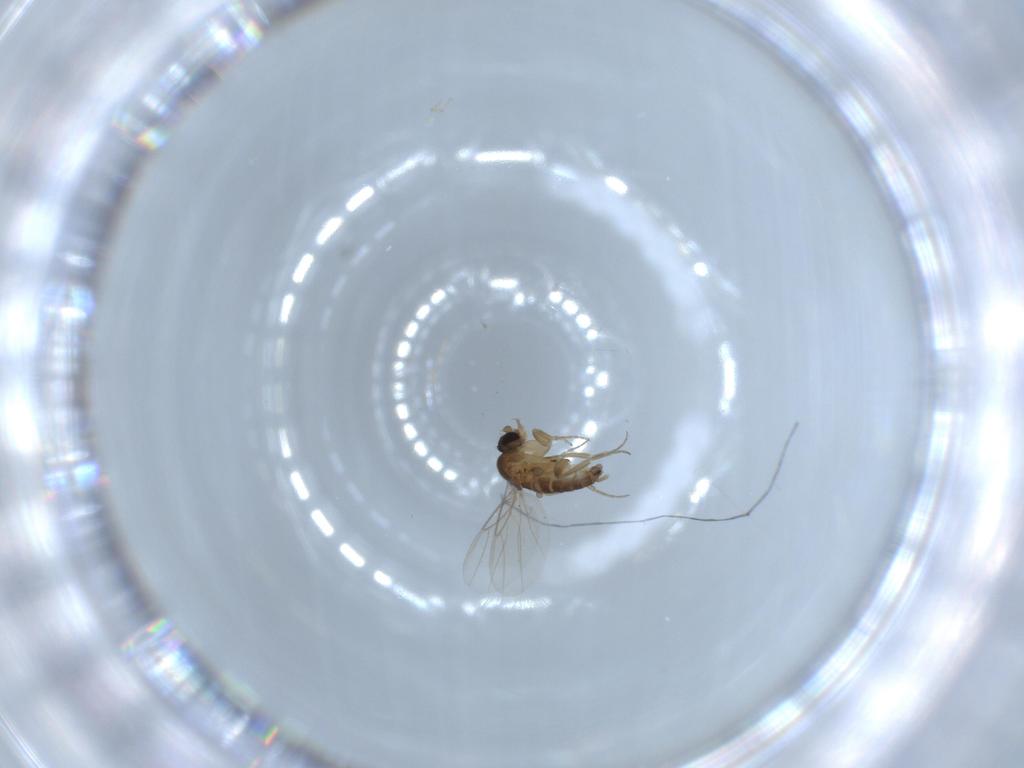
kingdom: Animalia
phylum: Arthropoda
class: Insecta
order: Diptera
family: Phoridae
